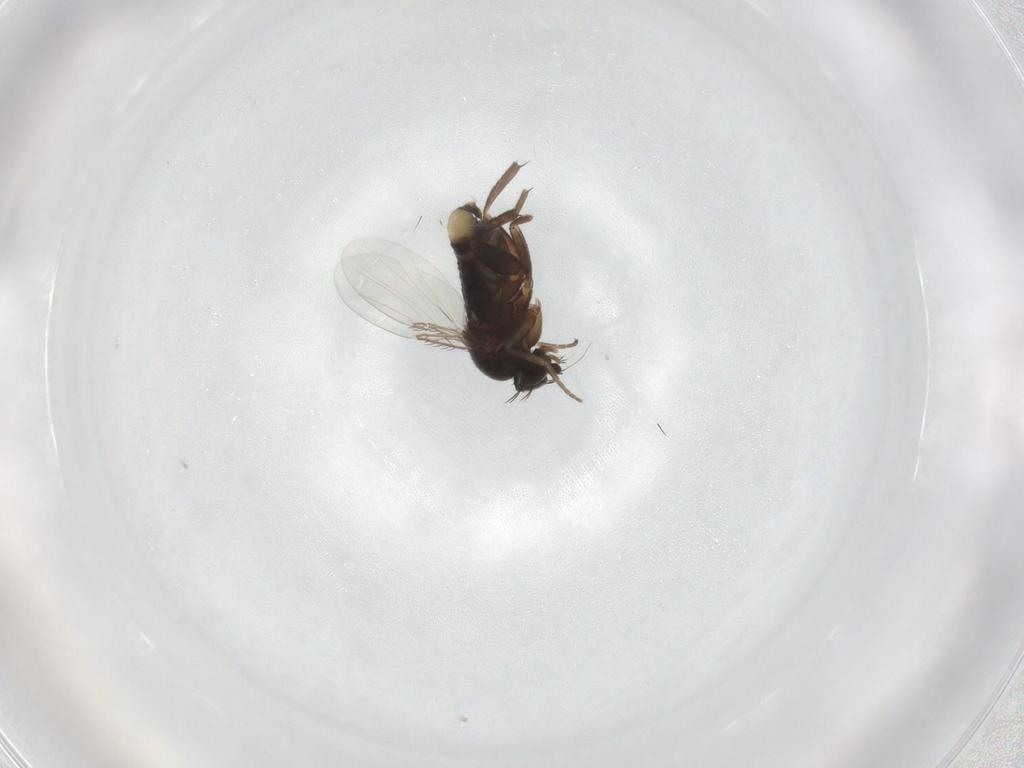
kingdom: Animalia
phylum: Arthropoda
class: Insecta
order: Diptera
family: Phoridae
